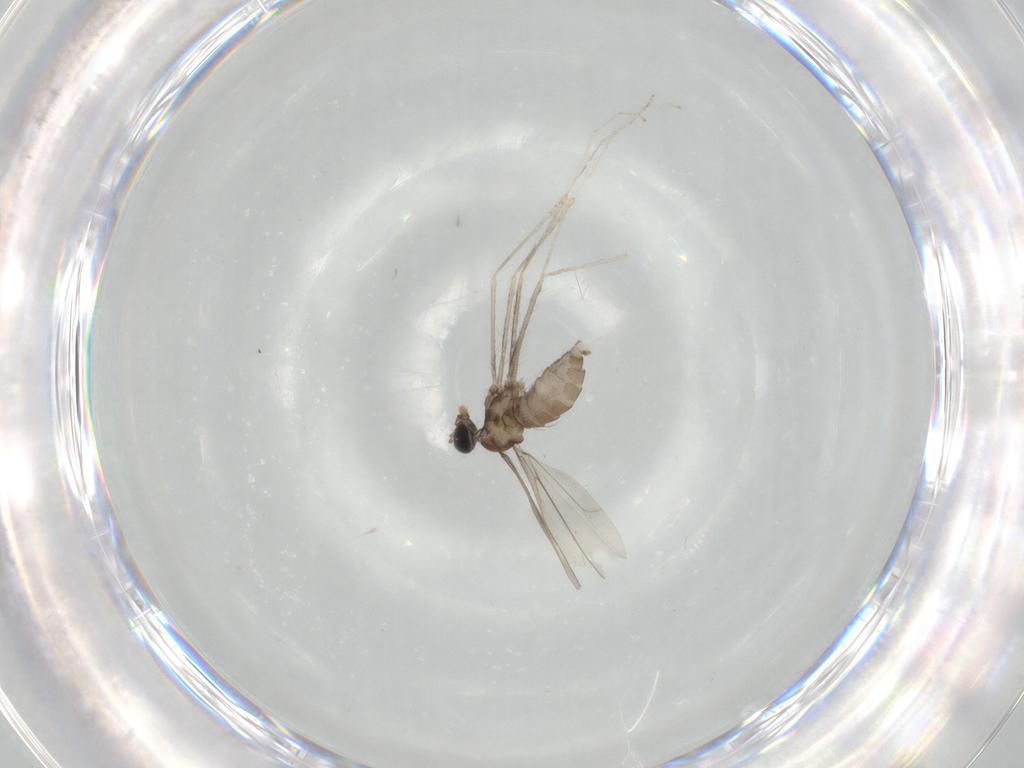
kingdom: Animalia
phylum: Arthropoda
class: Insecta
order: Diptera
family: Cecidomyiidae
